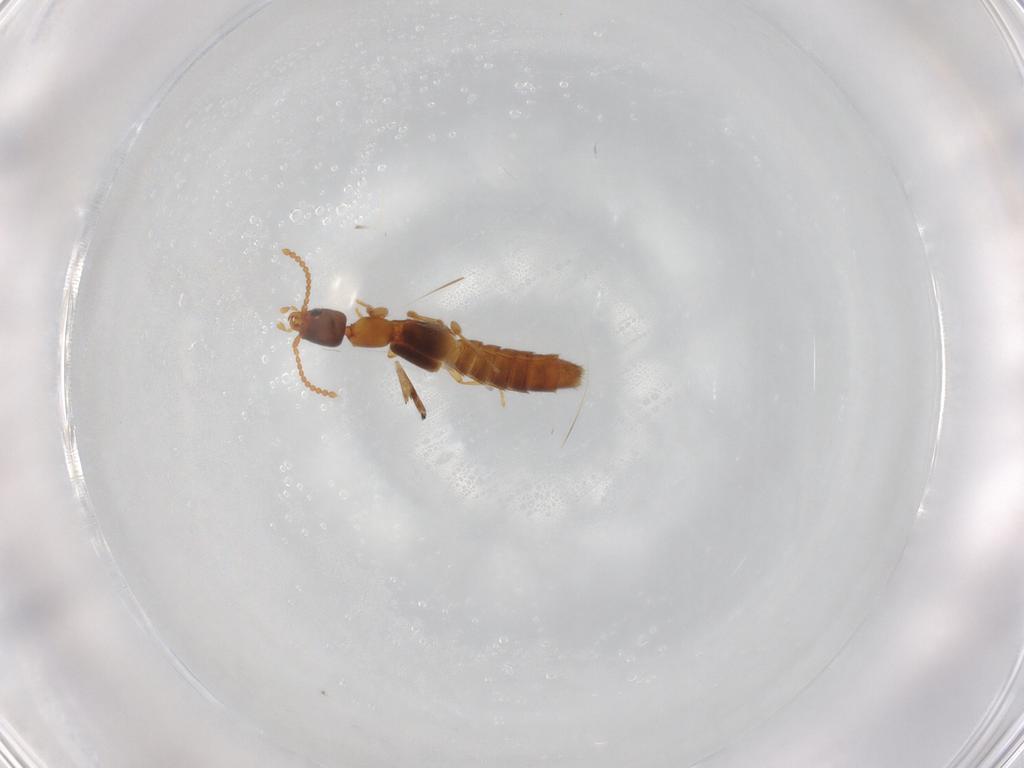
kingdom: Animalia
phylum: Arthropoda
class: Insecta
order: Coleoptera
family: Staphylinidae
